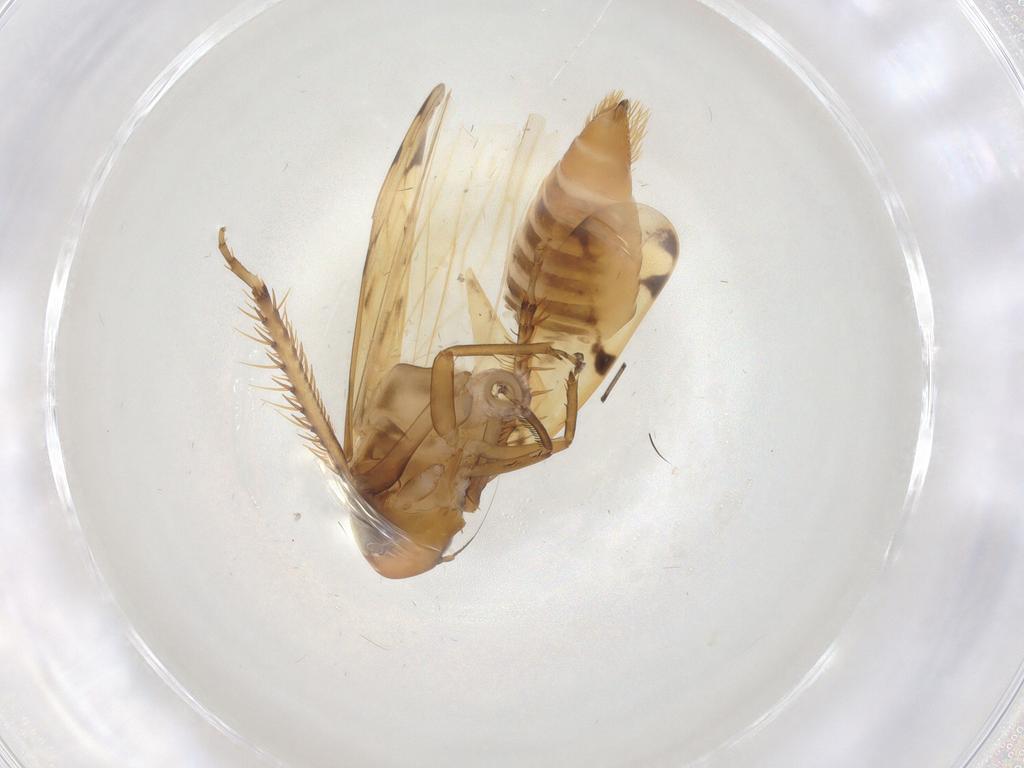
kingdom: Animalia
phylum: Arthropoda
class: Insecta
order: Hemiptera
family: Cicadellidae
